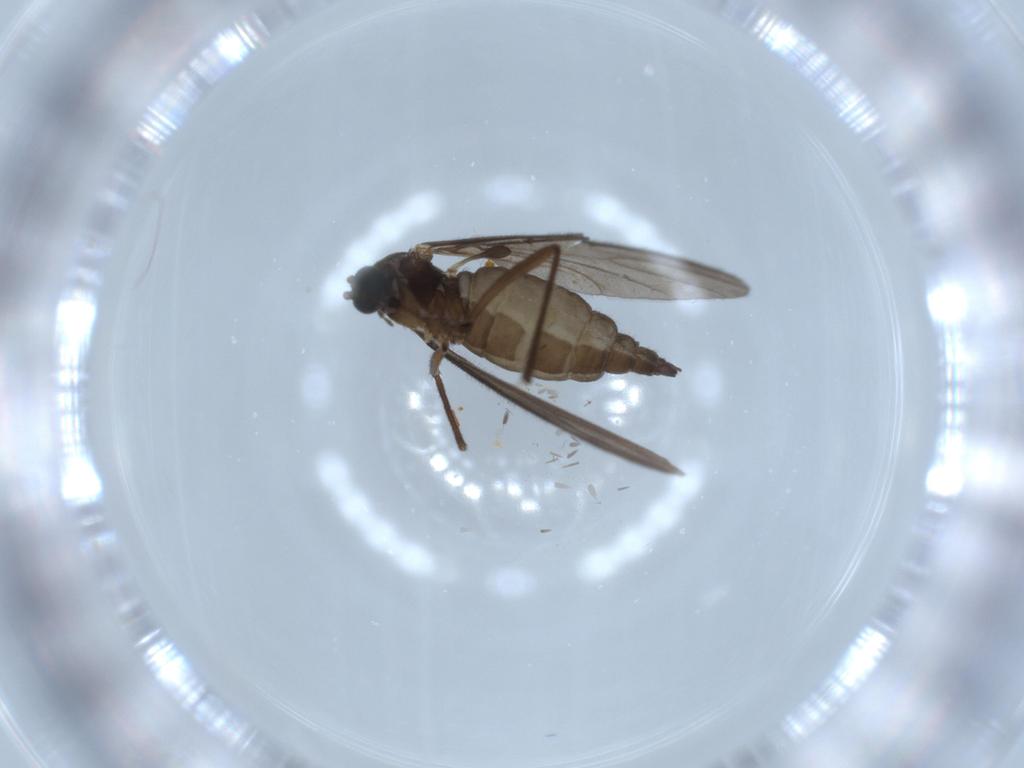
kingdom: Animalia
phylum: Arthropoda
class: Insecta
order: Diptera
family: Sciaridae
